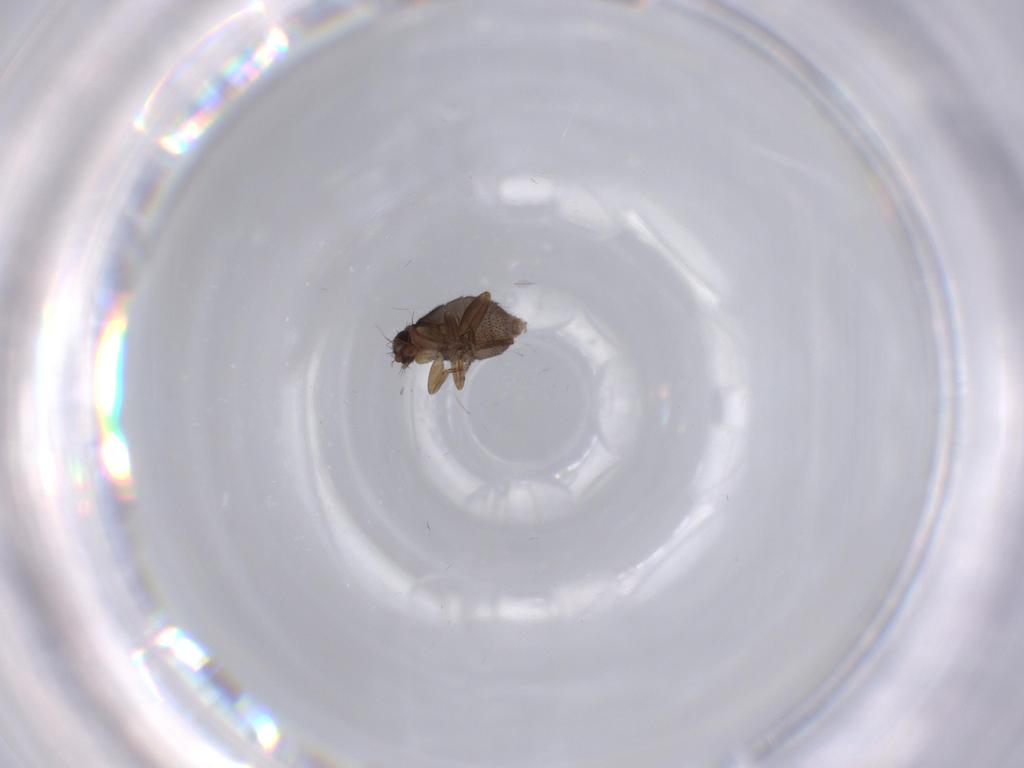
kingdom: Animalia
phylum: Arthropoda
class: Insecta
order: Diptera
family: Phoridae
